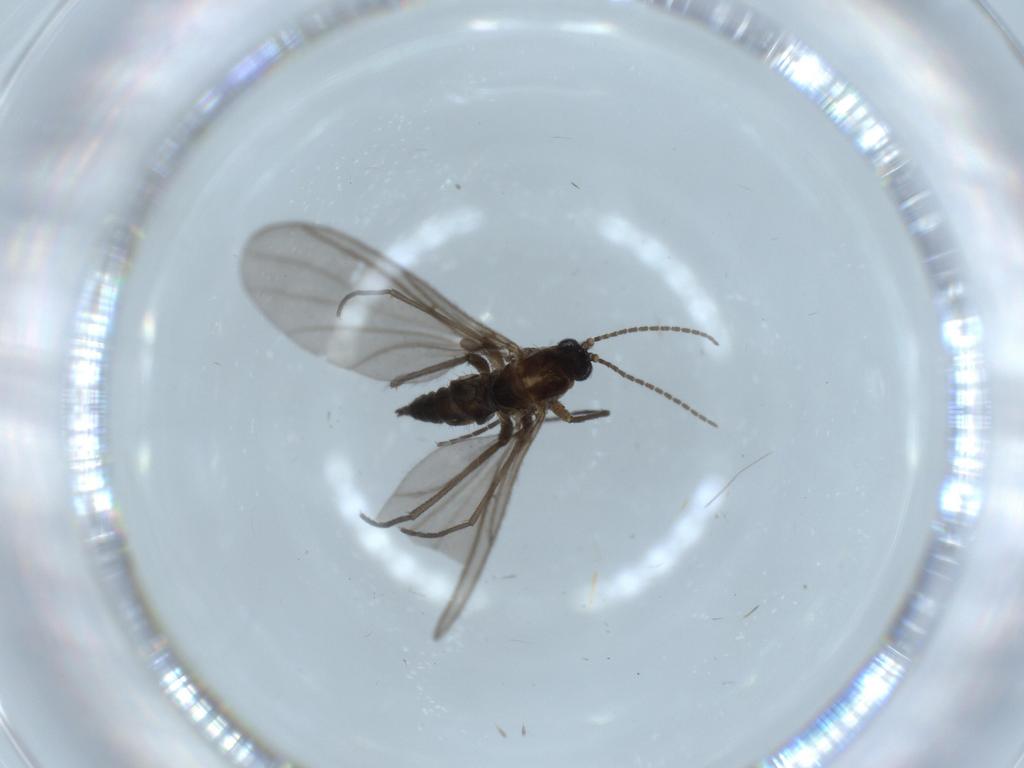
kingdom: Animalia
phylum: Arthropoda
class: Insecta
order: Diptera
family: Sciaridae
